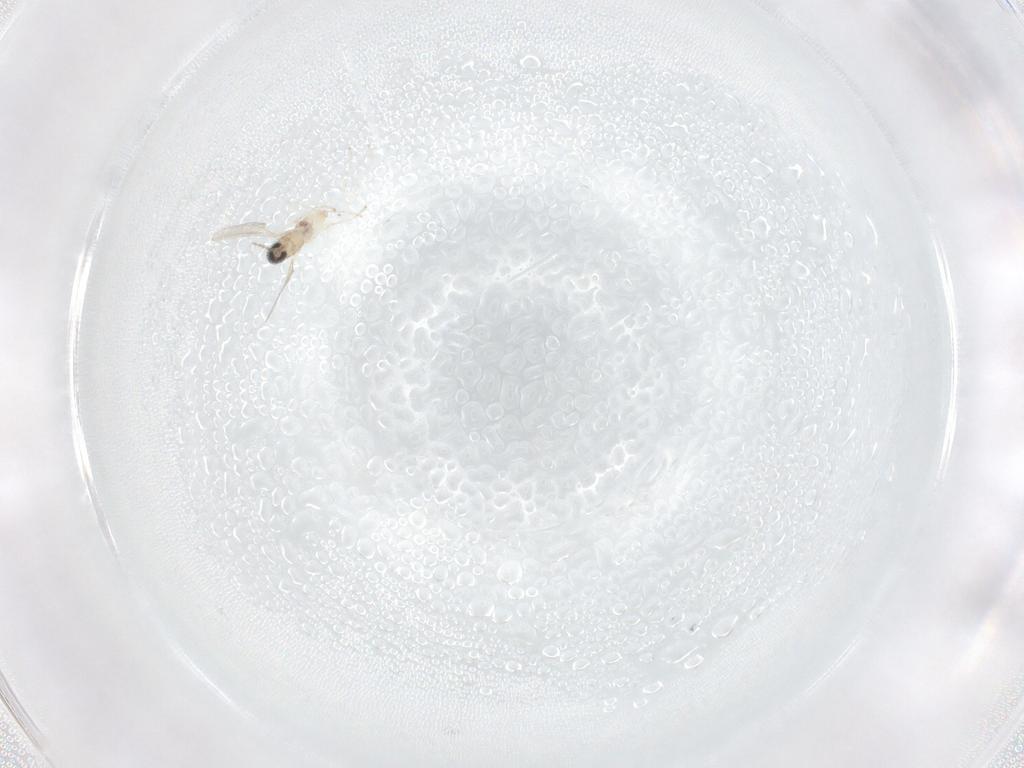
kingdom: Animalia
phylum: Arthropoda
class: Insecta
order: Diptera
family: Cecidomyiidae
